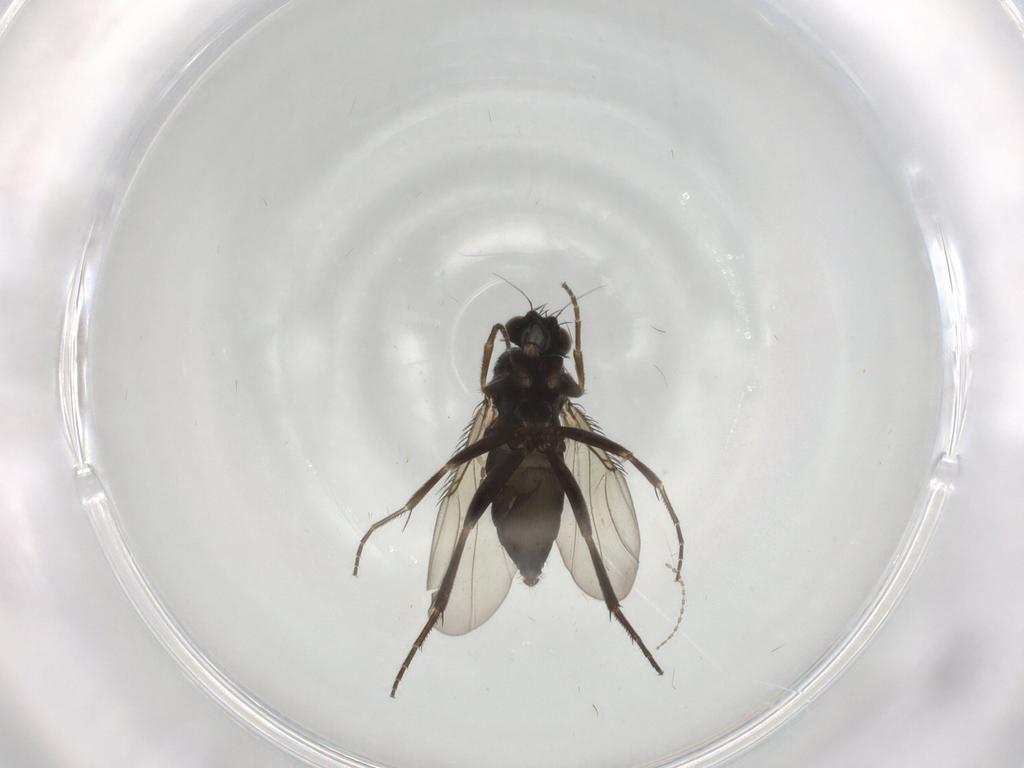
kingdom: Animalia
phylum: Arthropoda
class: Insecta
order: Diptera
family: Phoridae
